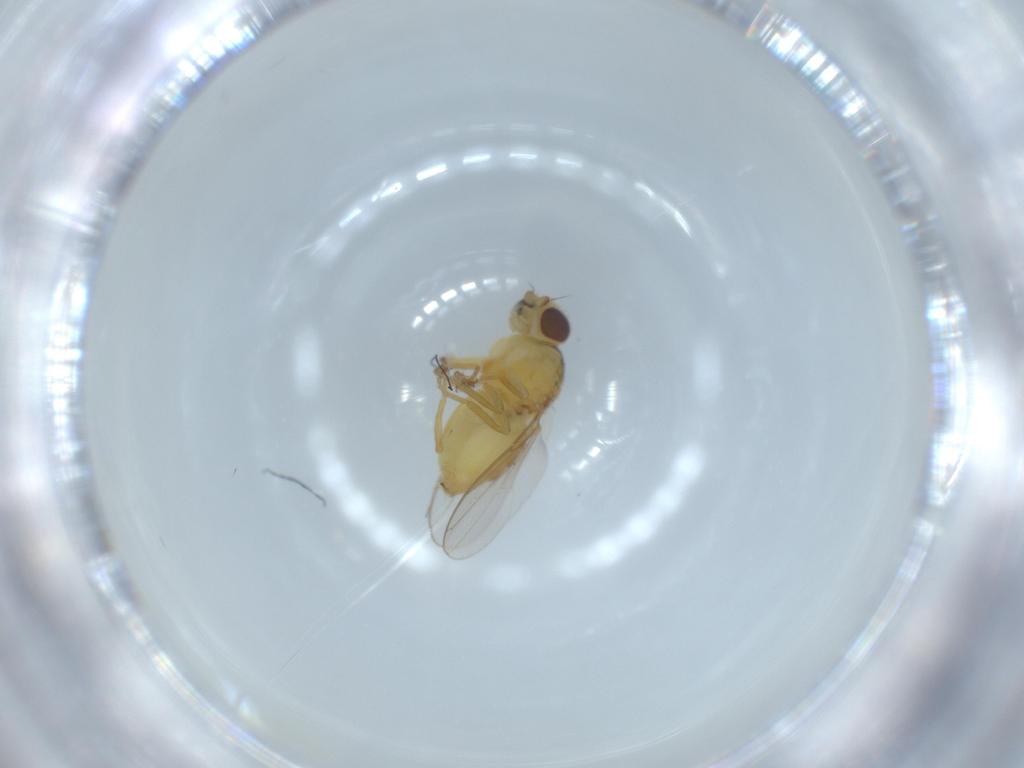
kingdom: Animalia
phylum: Arthropoda
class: Insecta
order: Diptera
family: Chloropidae
